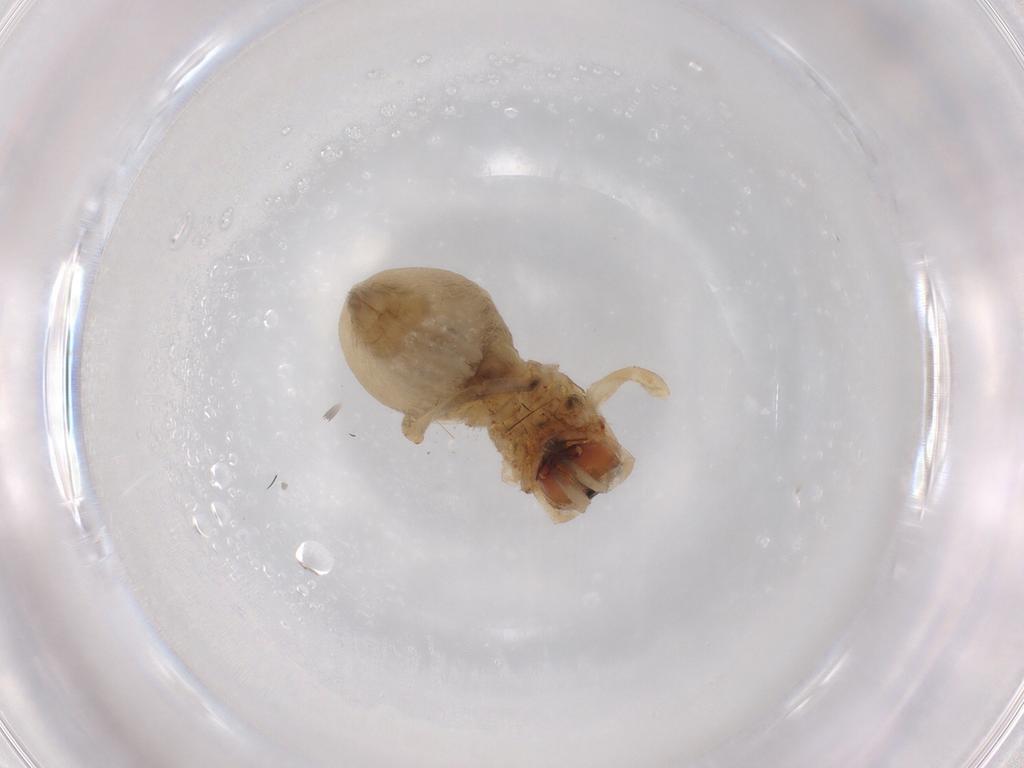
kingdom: Animalia
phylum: Arthropoda
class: Arachnida
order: Araneae
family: Cheiracanthiidae
